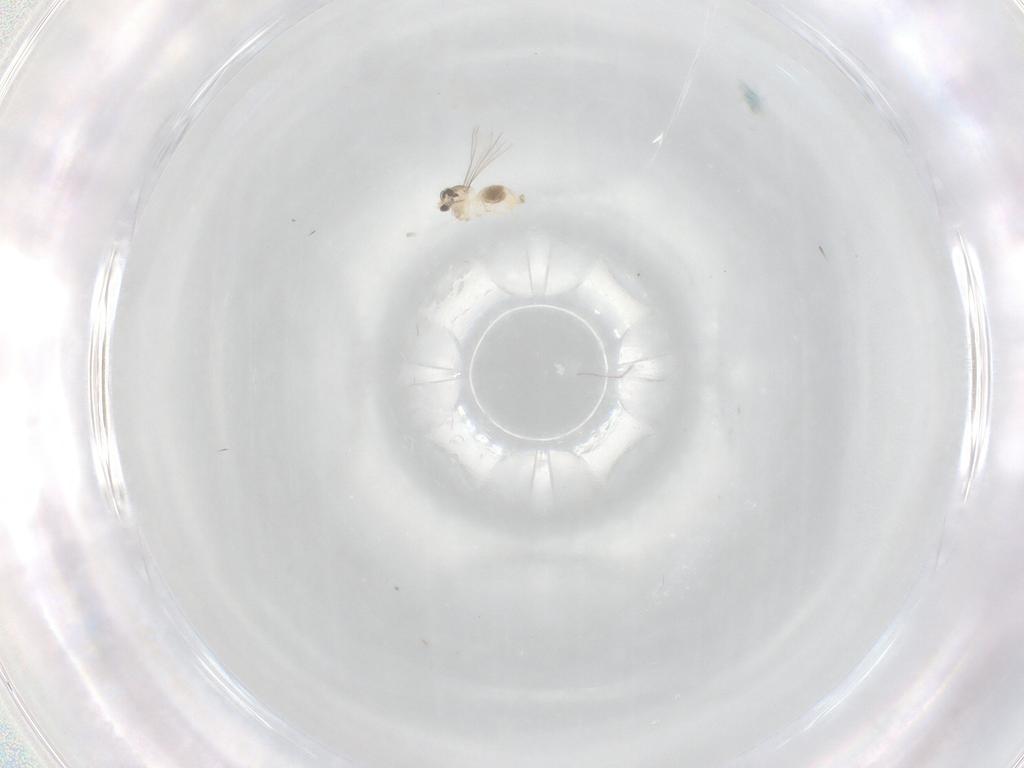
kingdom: Animalia
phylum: Arthropoda
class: Insecta
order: Diptera
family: Cecidomyiidae
